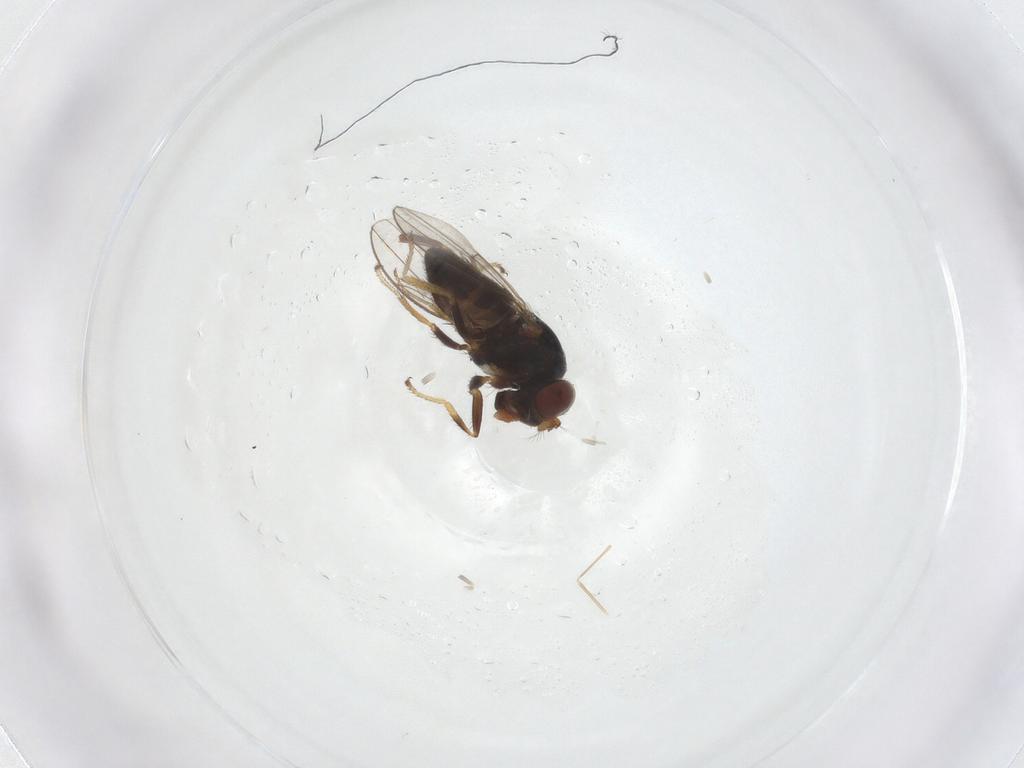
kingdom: Animalia
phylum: Arthropoda
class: Insecta
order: Diptera
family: Ceratopogonidae
